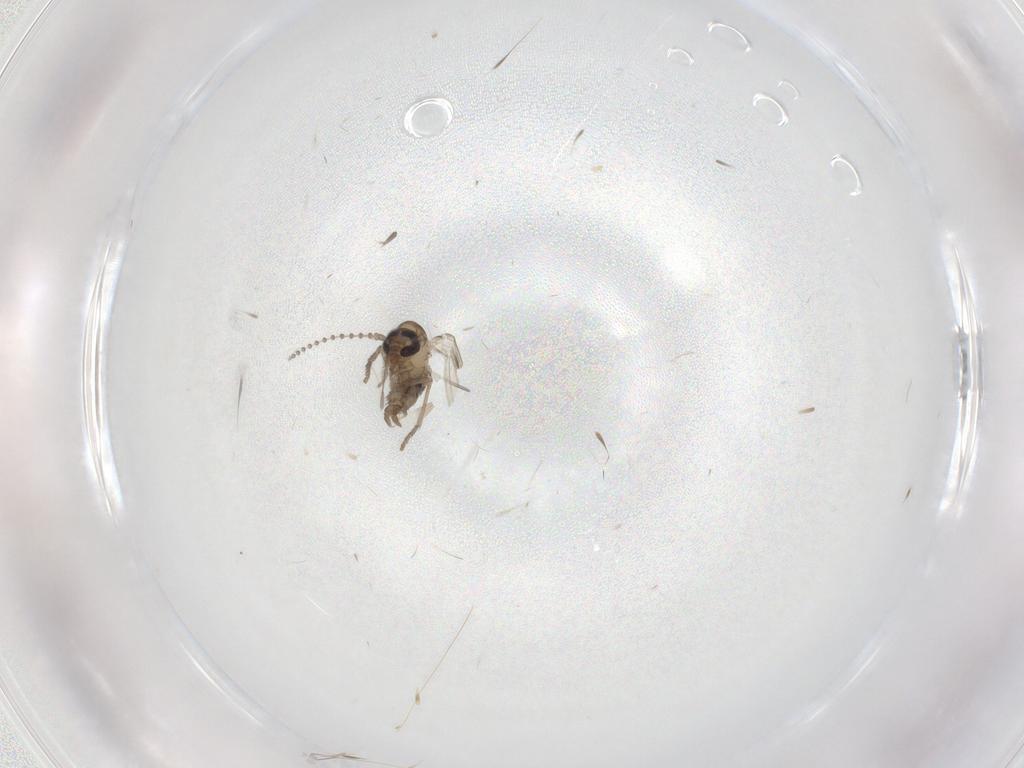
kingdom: Animalia
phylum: Arthropoda
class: Insecta
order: Diptera
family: Psychodidae
